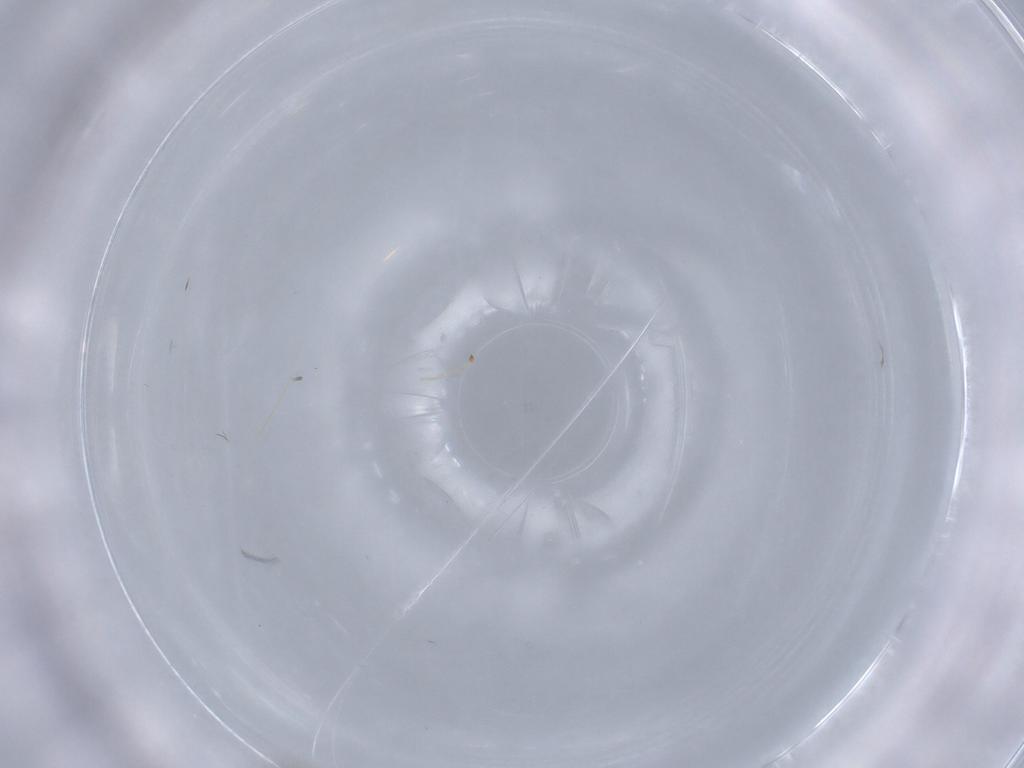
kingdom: Animalia
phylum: Arthropoda
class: Insecta
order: Hymenoptera
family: Mymaridae
